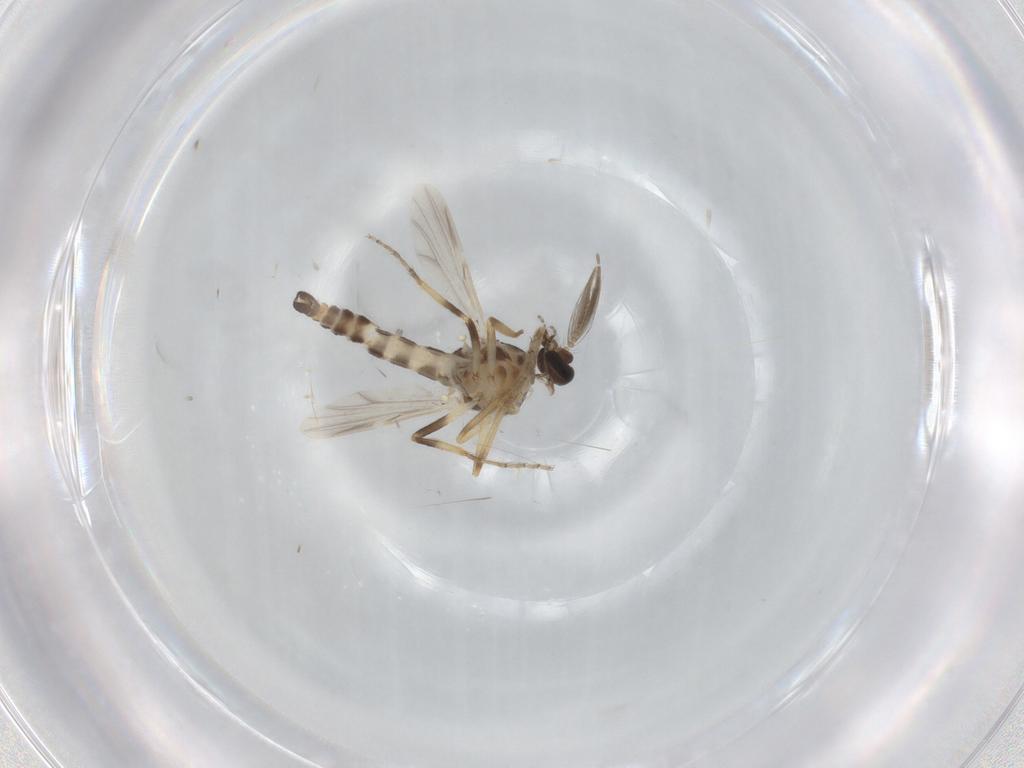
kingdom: Animalia
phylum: Arthropoda
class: Insecta
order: Diptera
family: Ceratopogonidae
